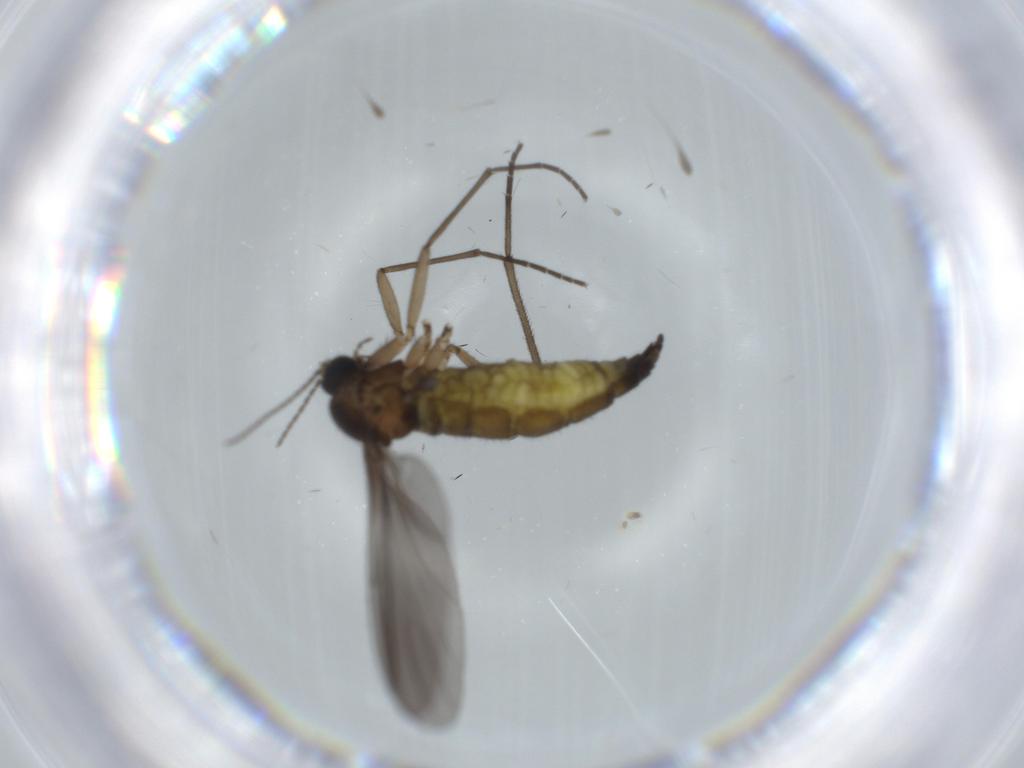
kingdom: Animalia
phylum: Arthropoda
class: Insecta
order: Diptera
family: Sciaridae
